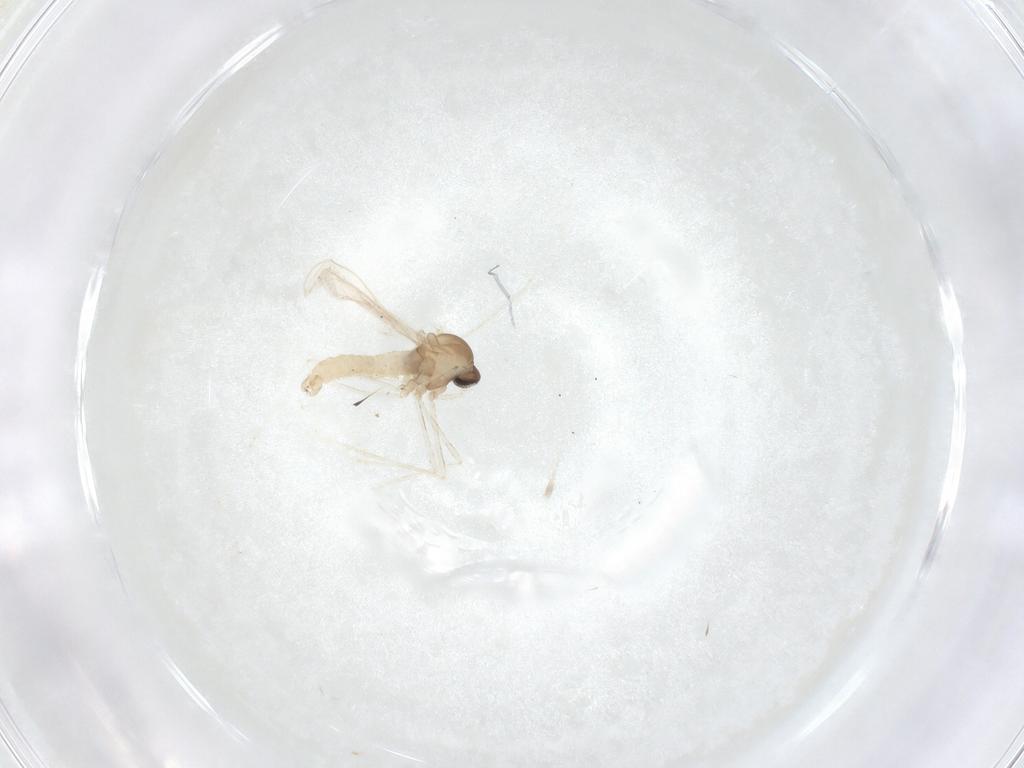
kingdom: Animalia
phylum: Arthropoda
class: Insecta
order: Diptera
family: Cecidomyiidae
